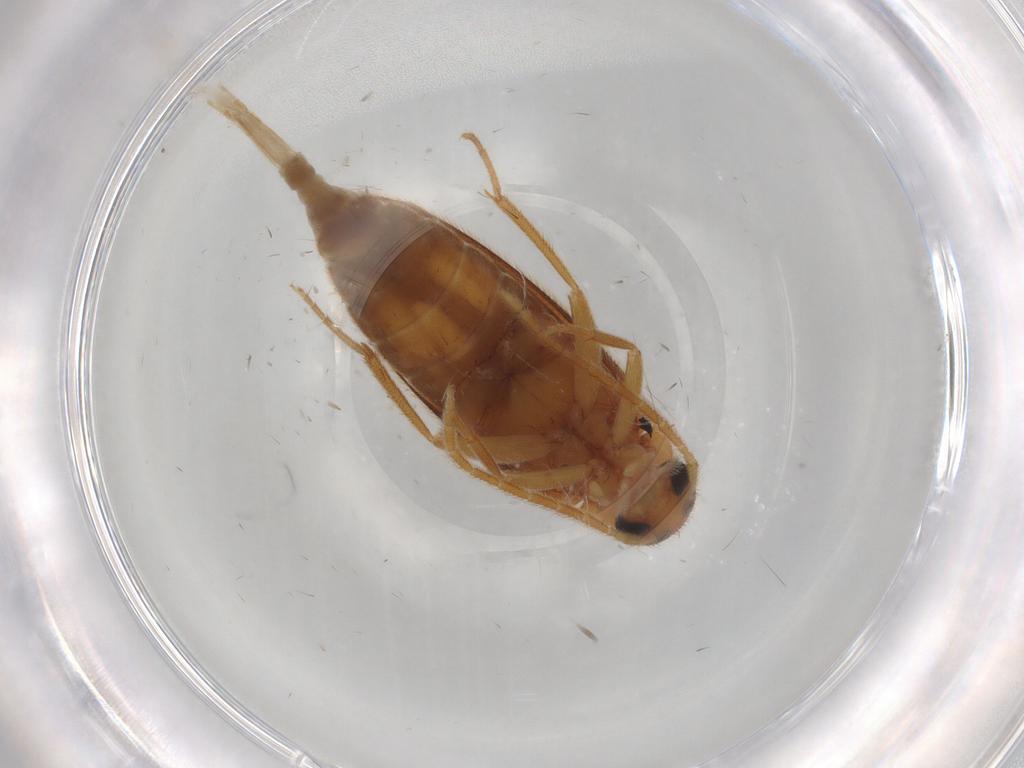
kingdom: Animalia
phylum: Arthropoda
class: Insecta
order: Coleoptera
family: Scraptiidae
